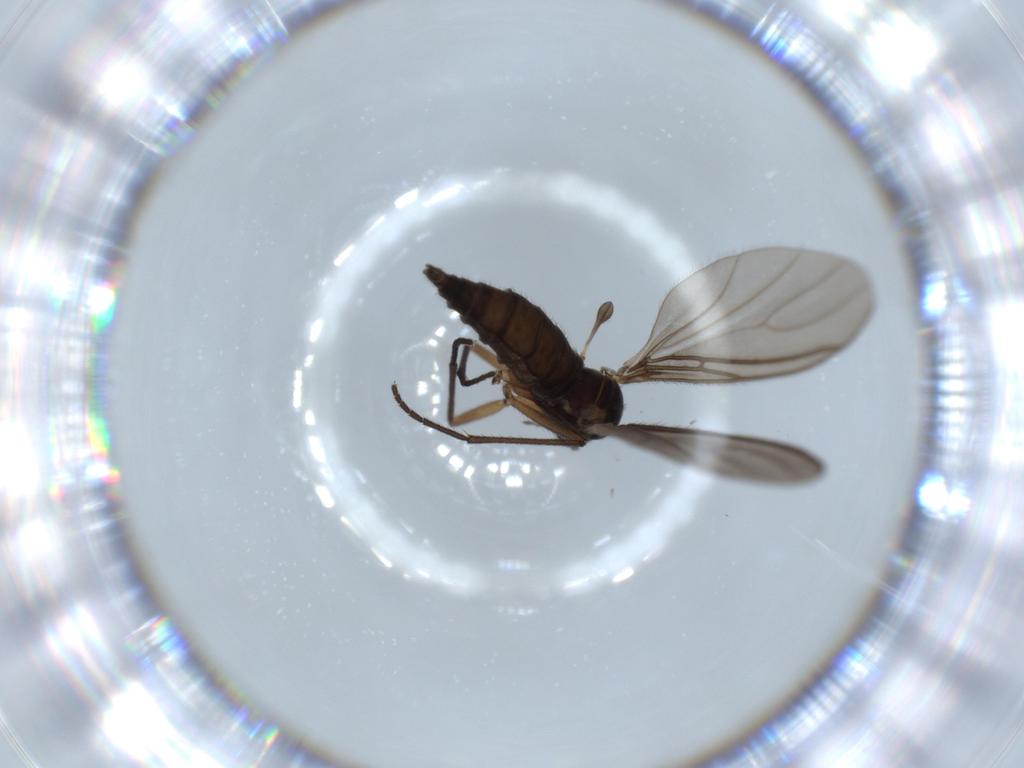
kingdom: Animalia
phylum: Arthropoda
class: Insecta
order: Diptera
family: Sciaridae
